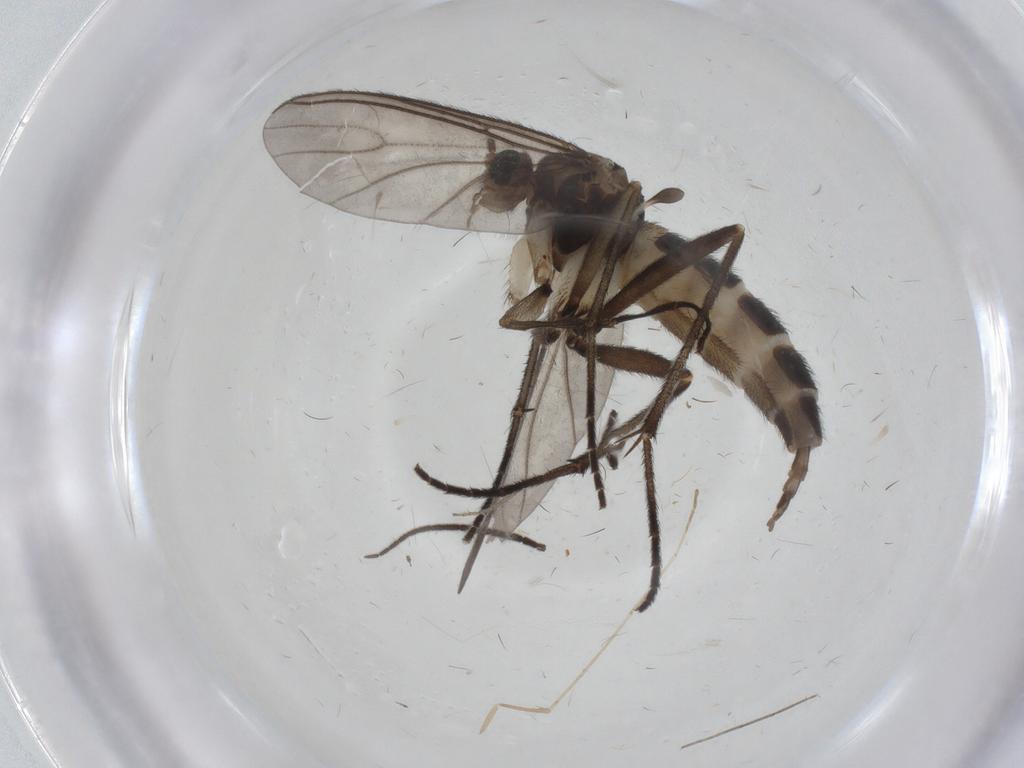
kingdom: Animalia
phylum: Arthropoda
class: Insecta
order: Diptera
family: Sciaridae
